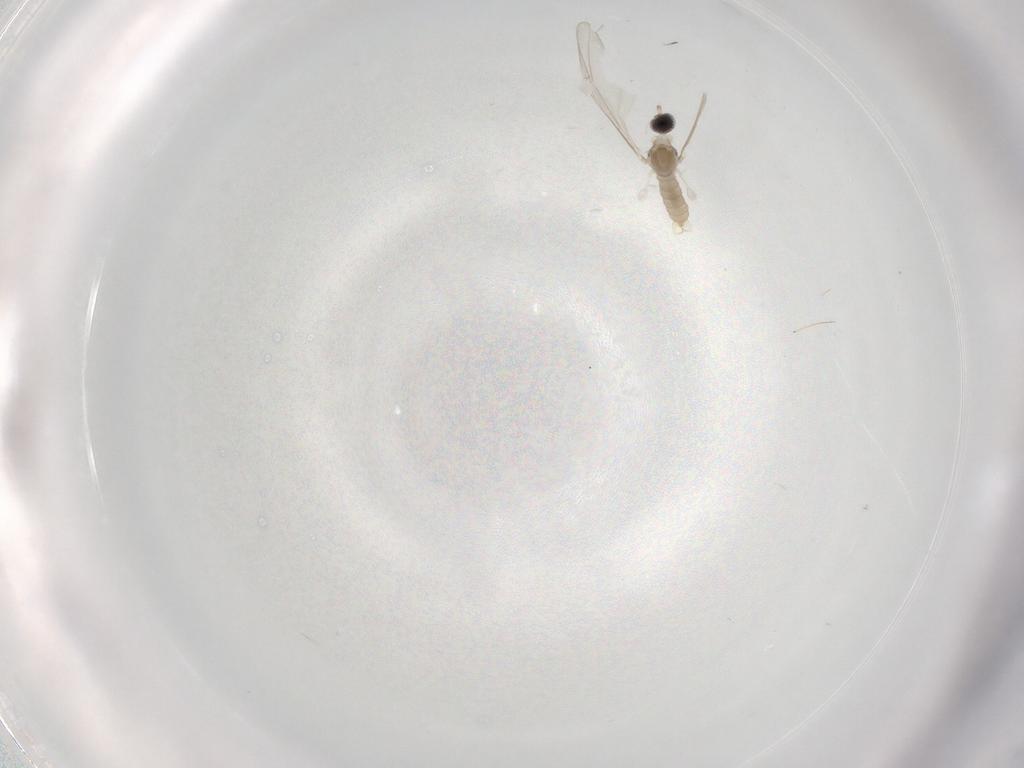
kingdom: Animalia
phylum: Arthropoda
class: Insecta
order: Diptera
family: Cecidomyiidae
